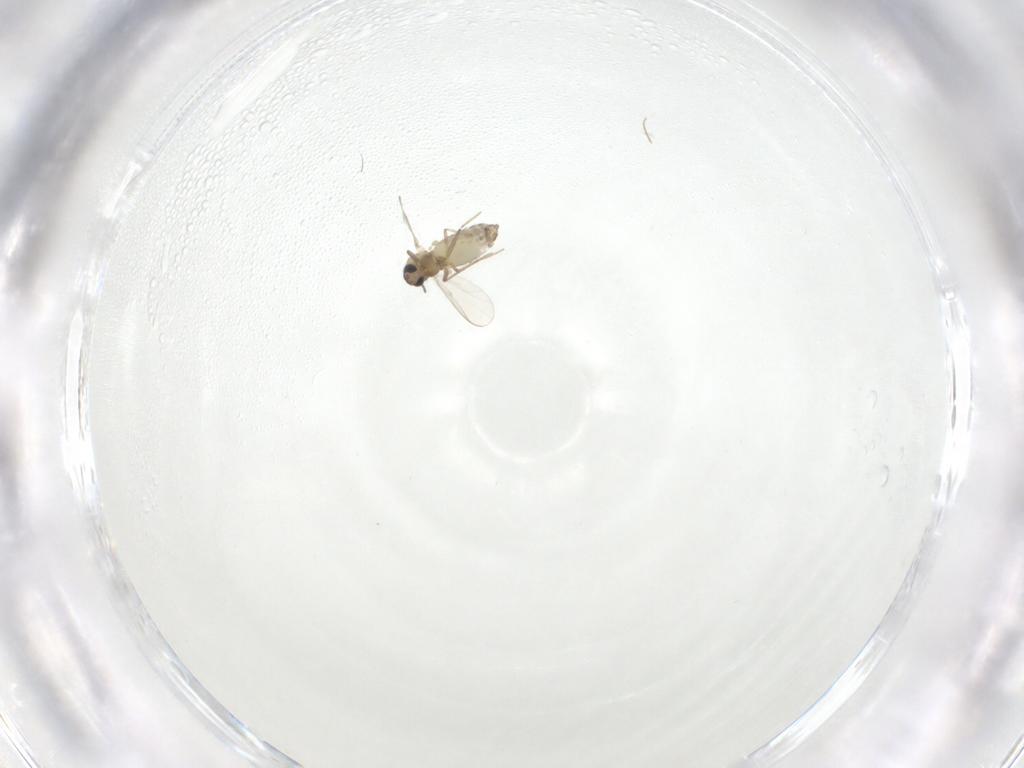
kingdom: Animalia
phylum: Arthropoda
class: Insecta
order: Diptera
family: Chironomidae
